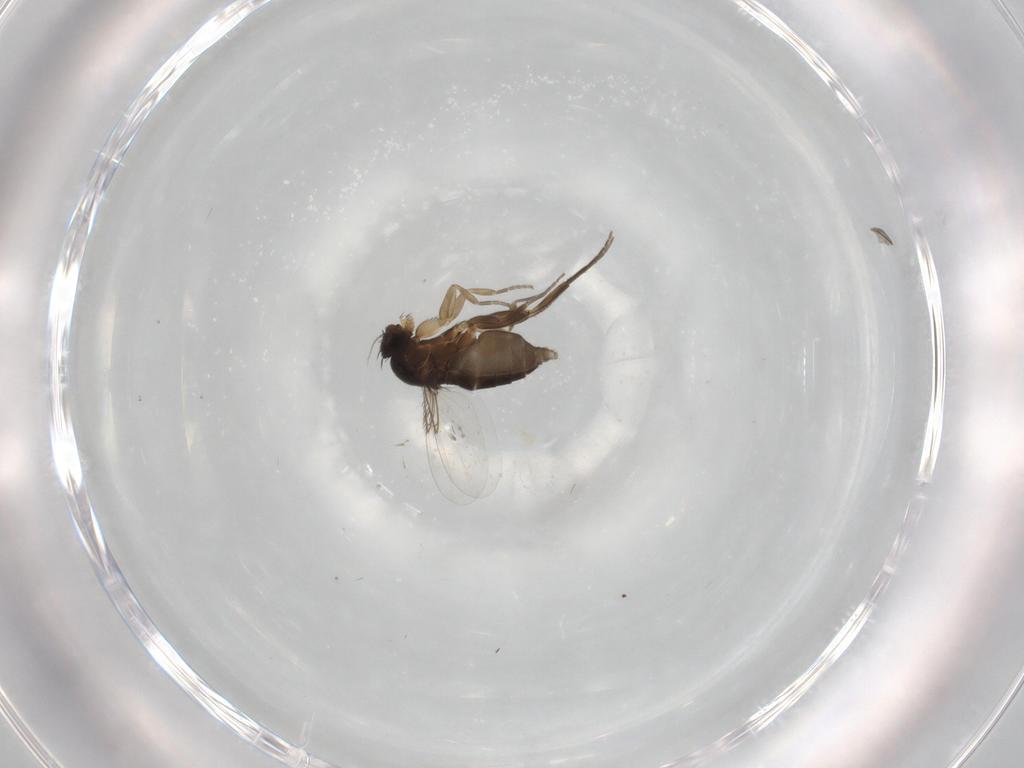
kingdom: Animalia
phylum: Arthropoda
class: Insecta
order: Diptera
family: Phoridae
